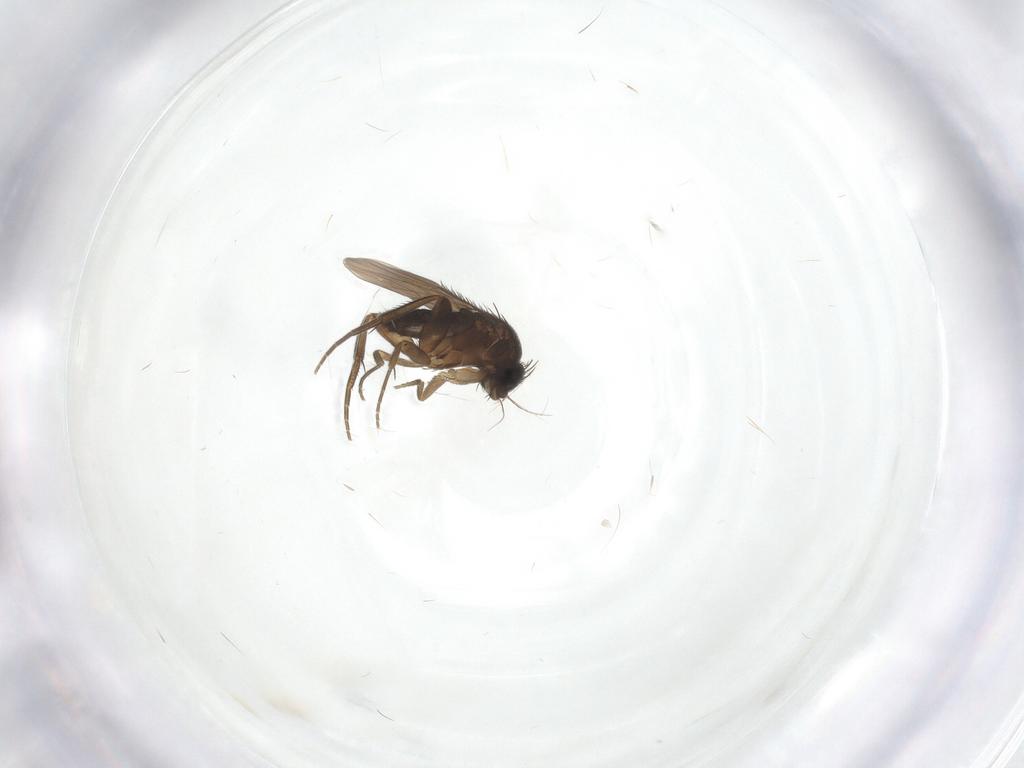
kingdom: Animalia
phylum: Arthropoda
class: Insecta
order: Diptera
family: Phoridae
